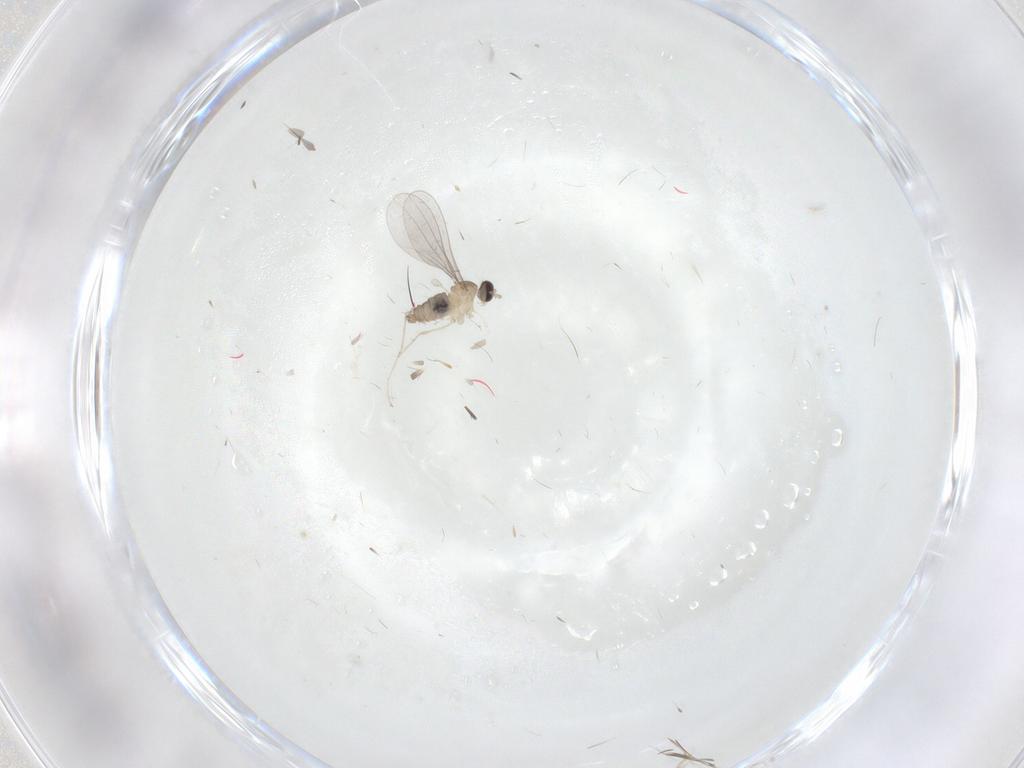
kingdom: Animalia
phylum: Arthropoda
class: Insecta
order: Diptera
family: Cecidomyiidae
